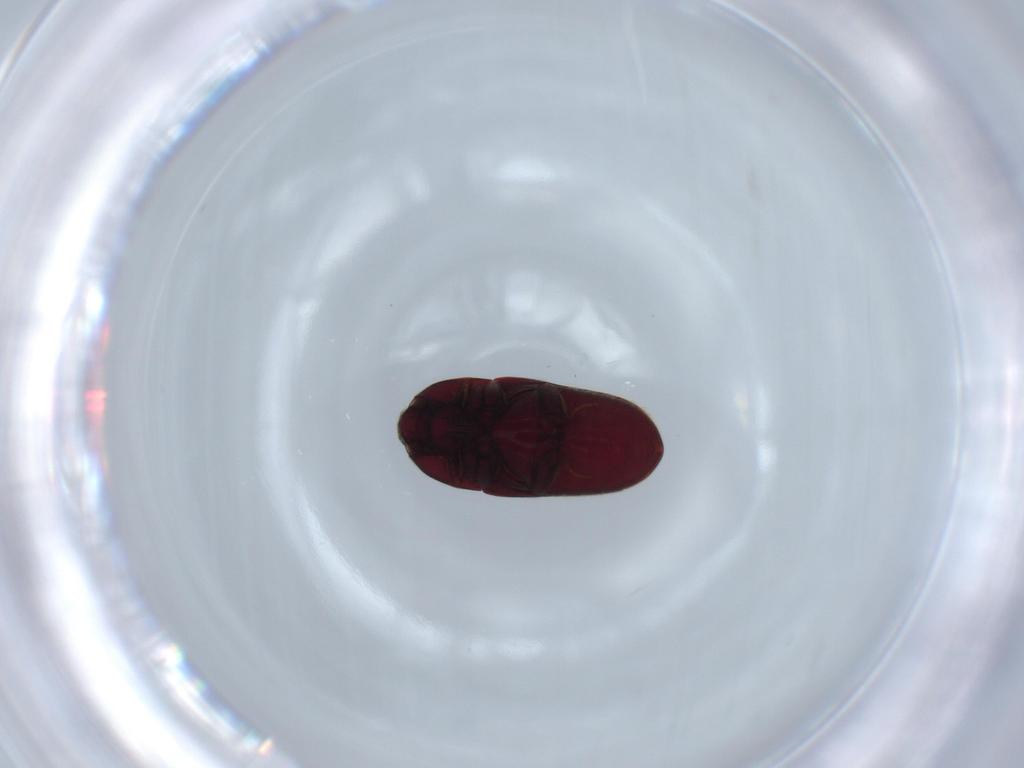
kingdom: Animalia
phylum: Arthropoda
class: Insecta
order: Coleoptera
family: Throscidae
